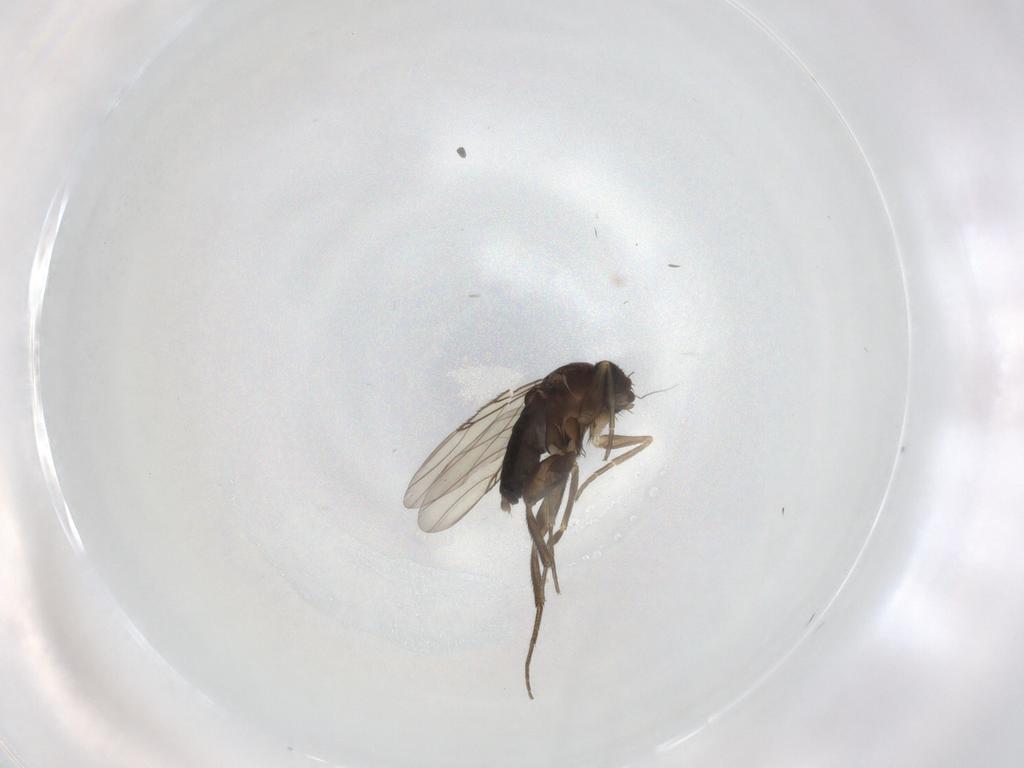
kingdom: Animalia
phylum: Arthropoda
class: Insecta
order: Diptera
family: Phoridae
